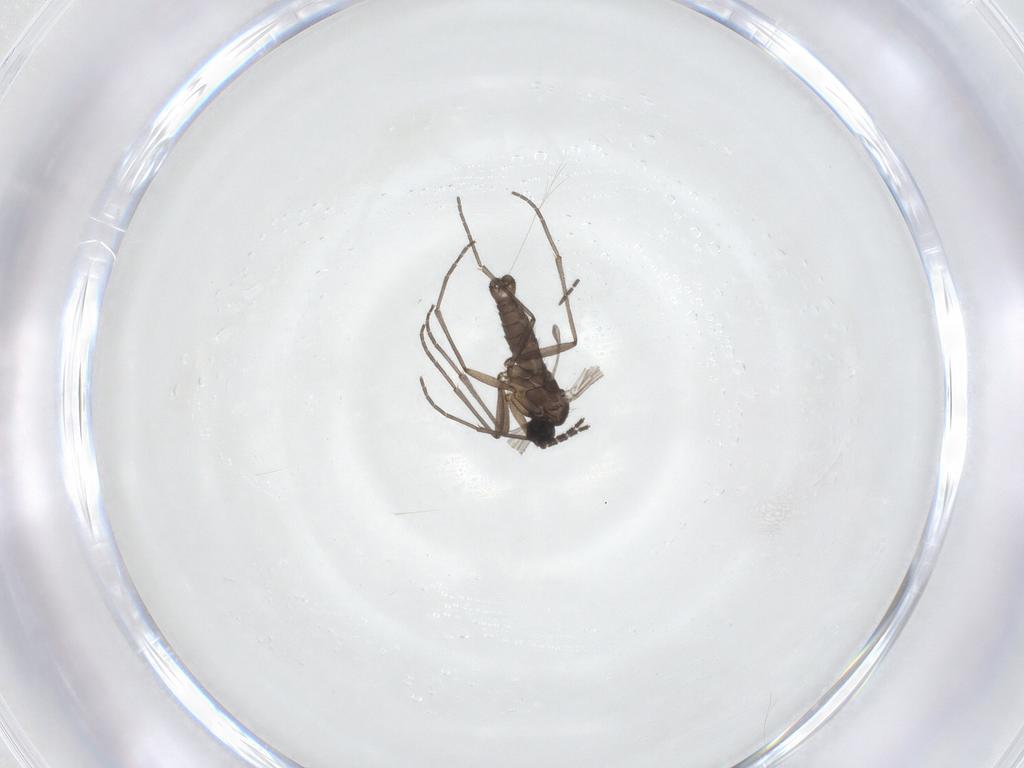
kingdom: Animalia
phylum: Arthropoda
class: Insecta
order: Diptera
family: Sciaridae
